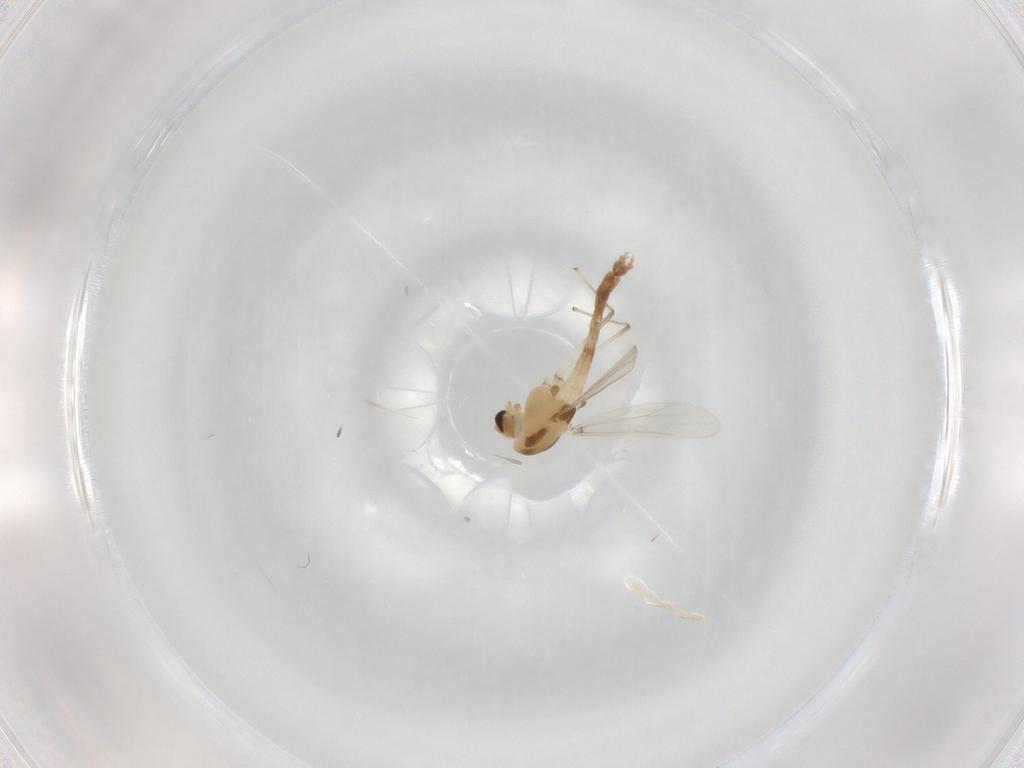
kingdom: Animalia
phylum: Arthropoda
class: Insecta
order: Diptera
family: Chironomidae
